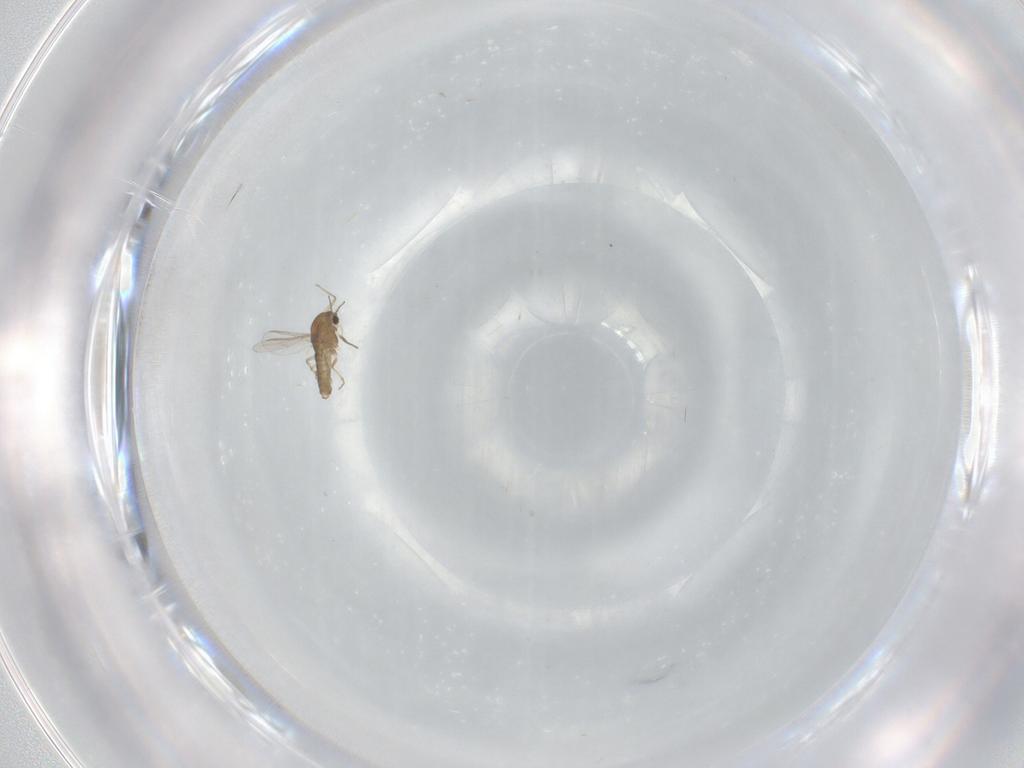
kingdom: Animalia
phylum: Arthropoda
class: Insecta
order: Diptera
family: Chironomidae
